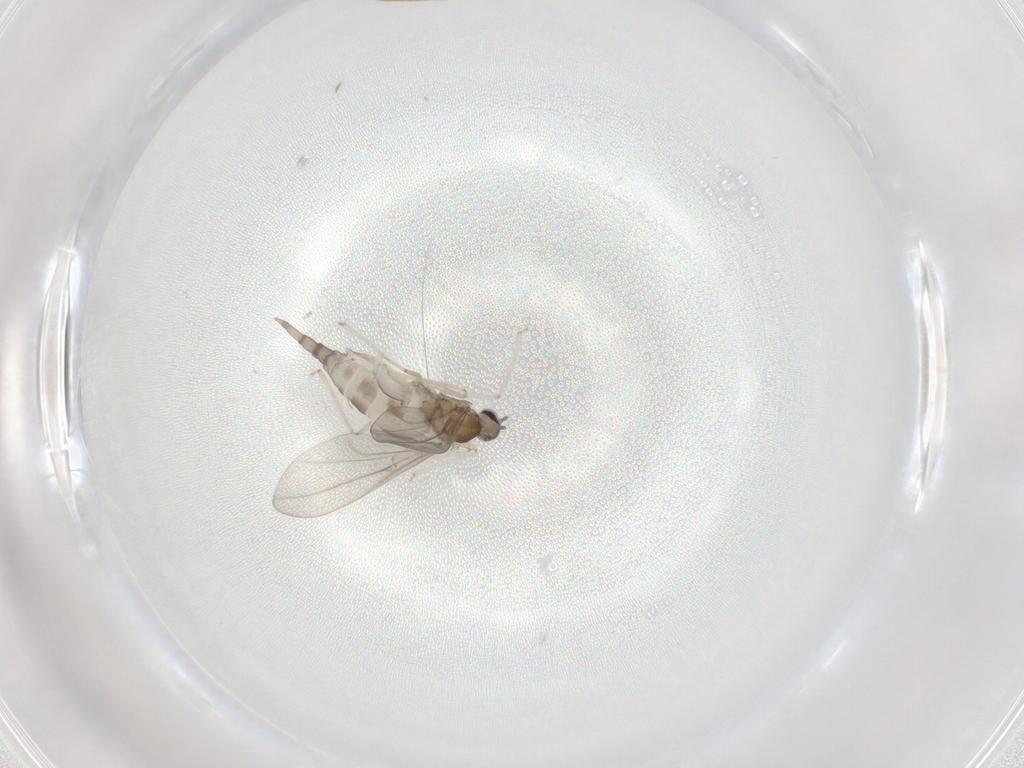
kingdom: Animalia
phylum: Arthropoda
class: Insecta
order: Diptera
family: Cecidomyiidae
